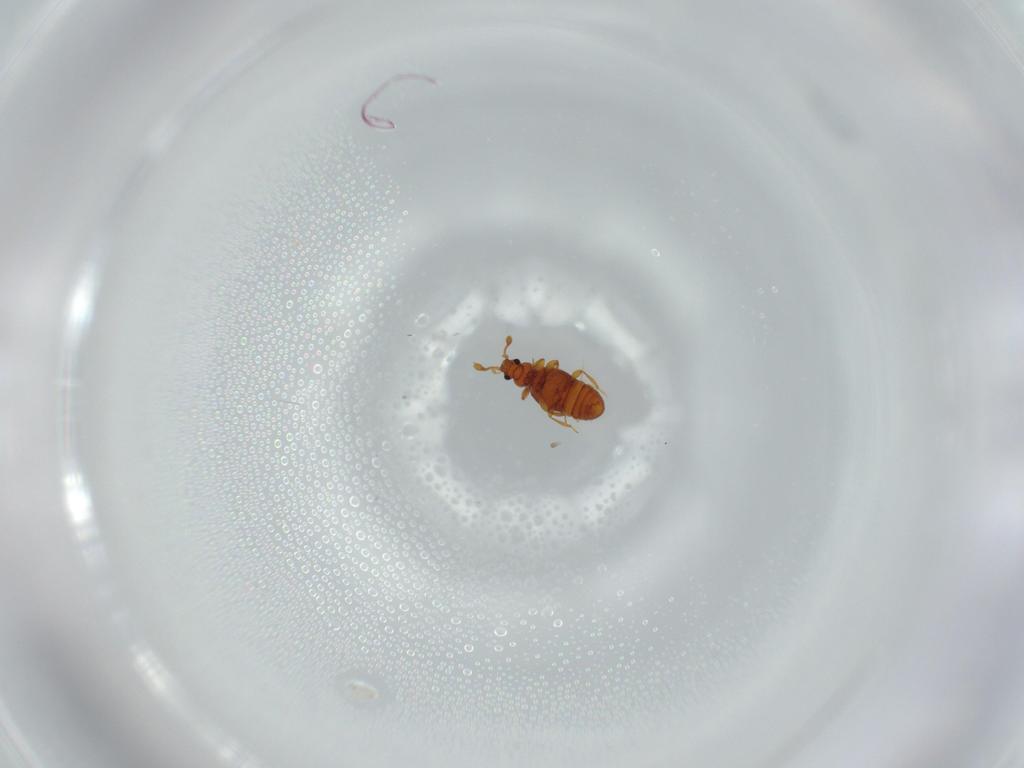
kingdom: Animalia
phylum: Arthropoda
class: Insecta
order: Coleoptera
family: Staphylinidae
